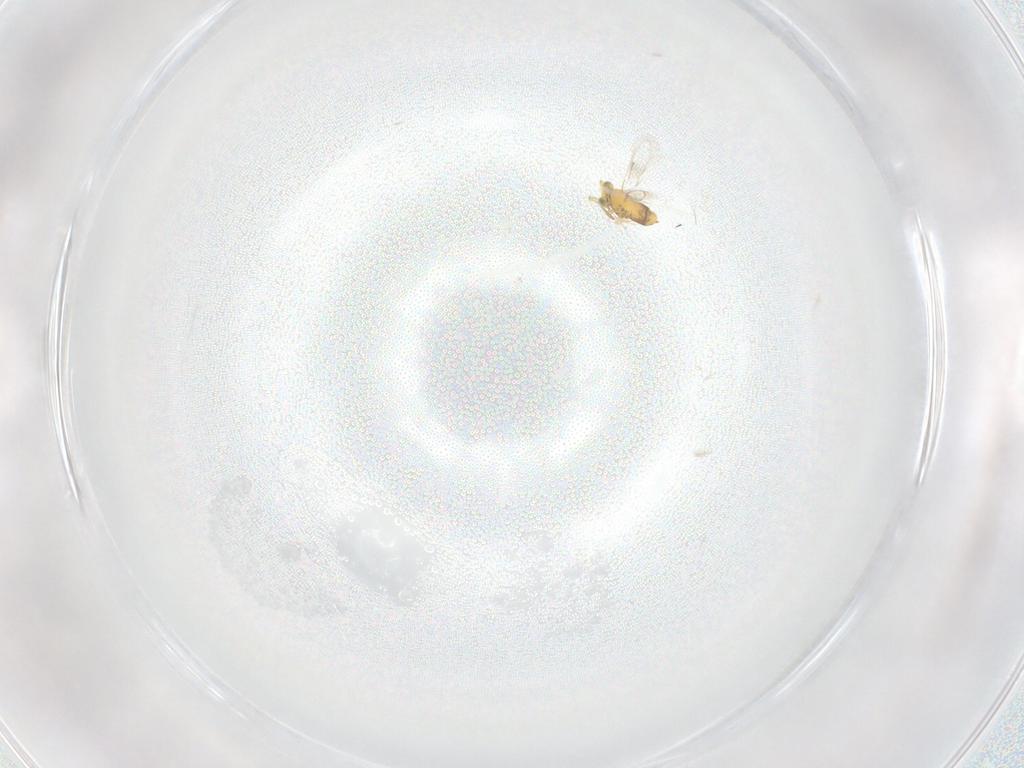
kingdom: Animalia
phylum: Arthropoda
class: Insecta
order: Hymenoptera
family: Aphelinidae
